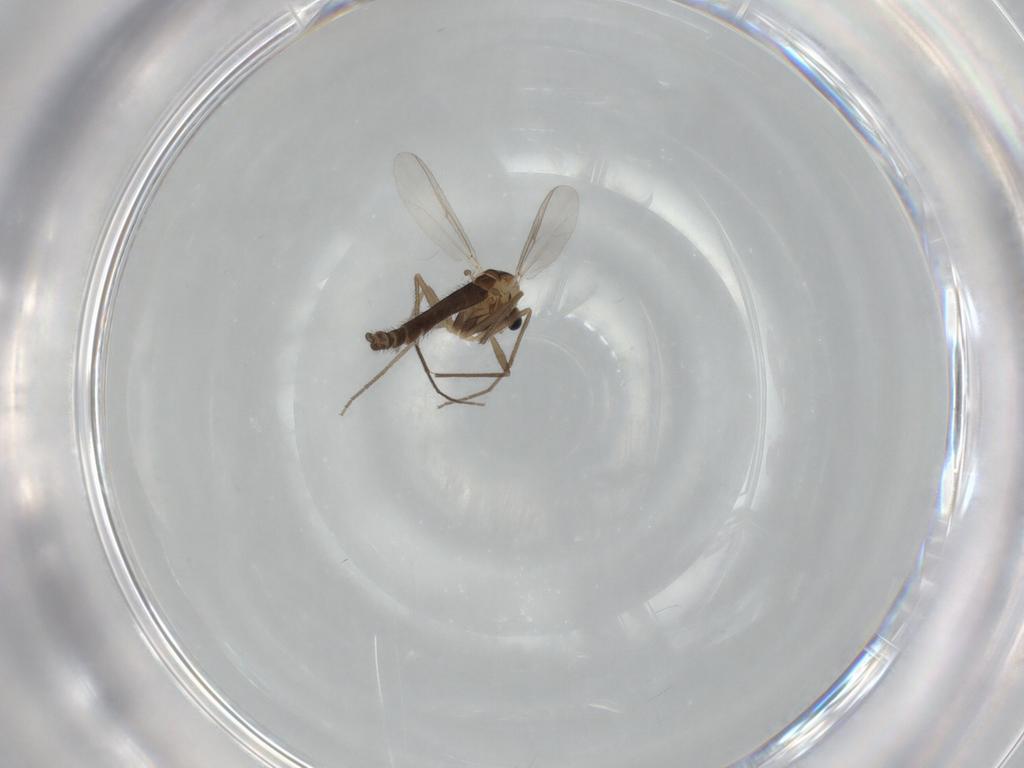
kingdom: Animalia
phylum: Arthropoda
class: Insecta
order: Diptera
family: Chironomidae
